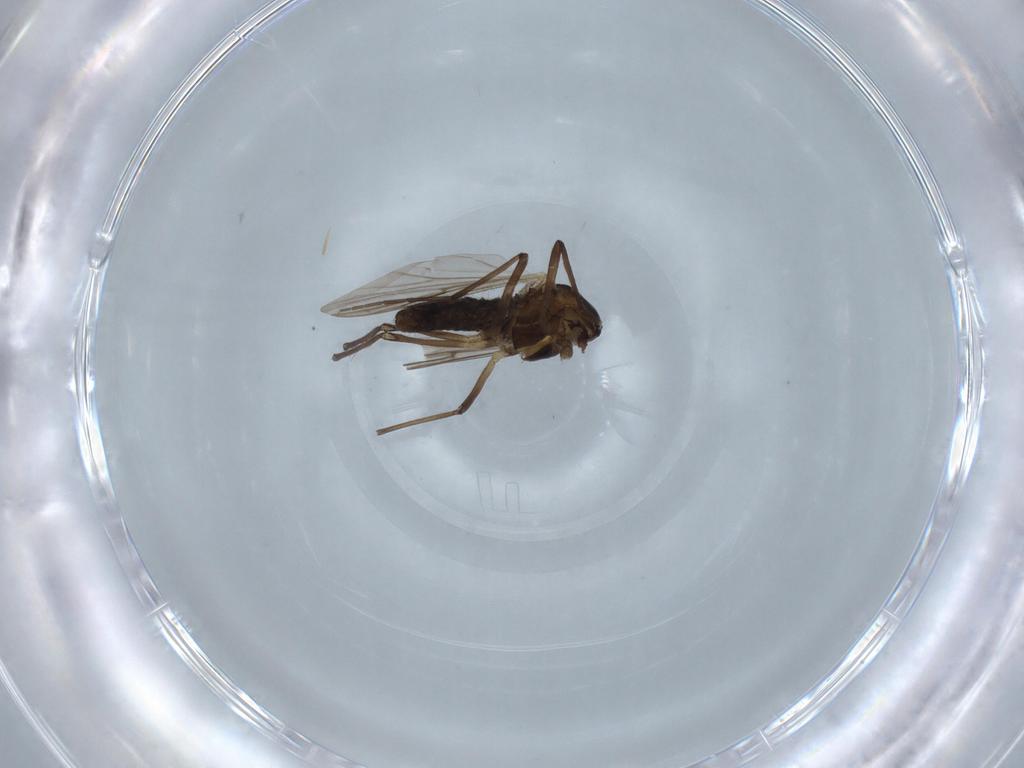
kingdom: Animalia
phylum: Arthropoda
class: Insecta
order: Diptera
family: Chironomidae
